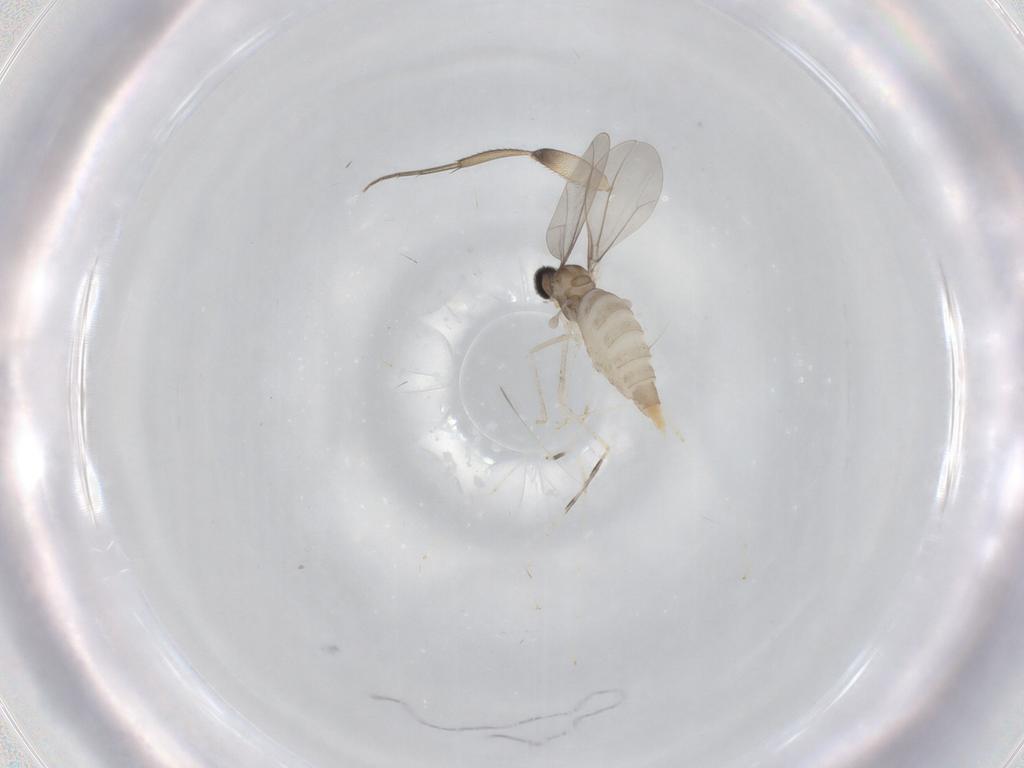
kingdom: Animalia
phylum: Arthropoda
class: Insecta
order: Diptera
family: Cecidomyiidae
